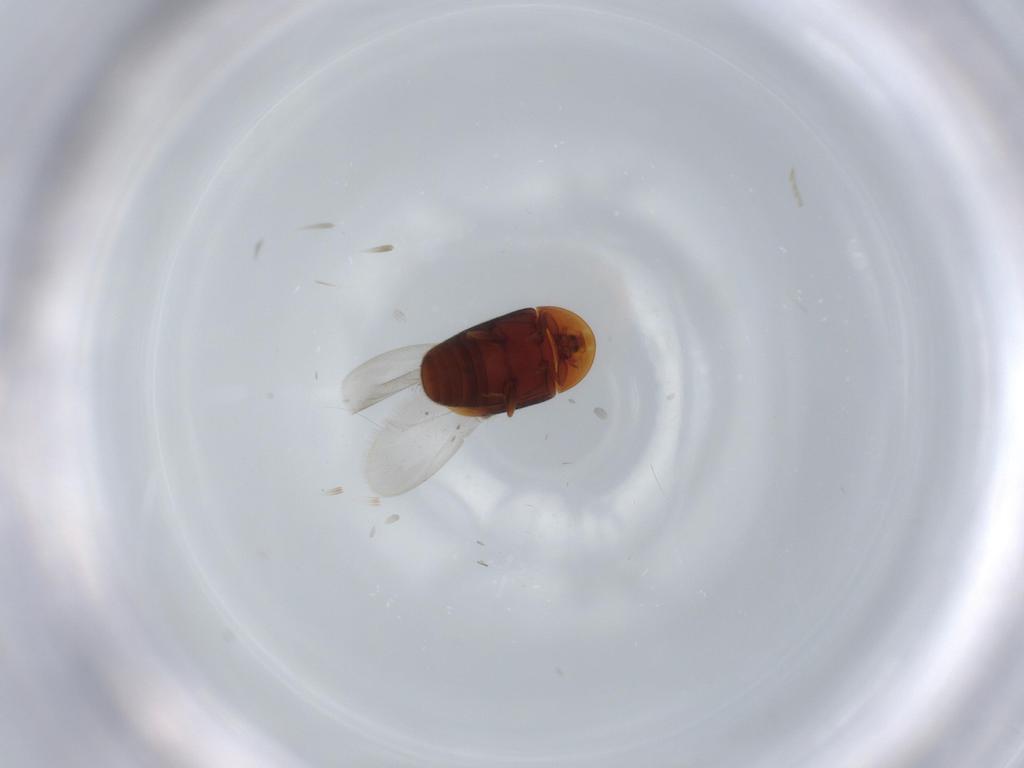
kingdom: Animalia
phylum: Arthropoda
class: Insecta
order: Coleoptera
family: Corylophidae
